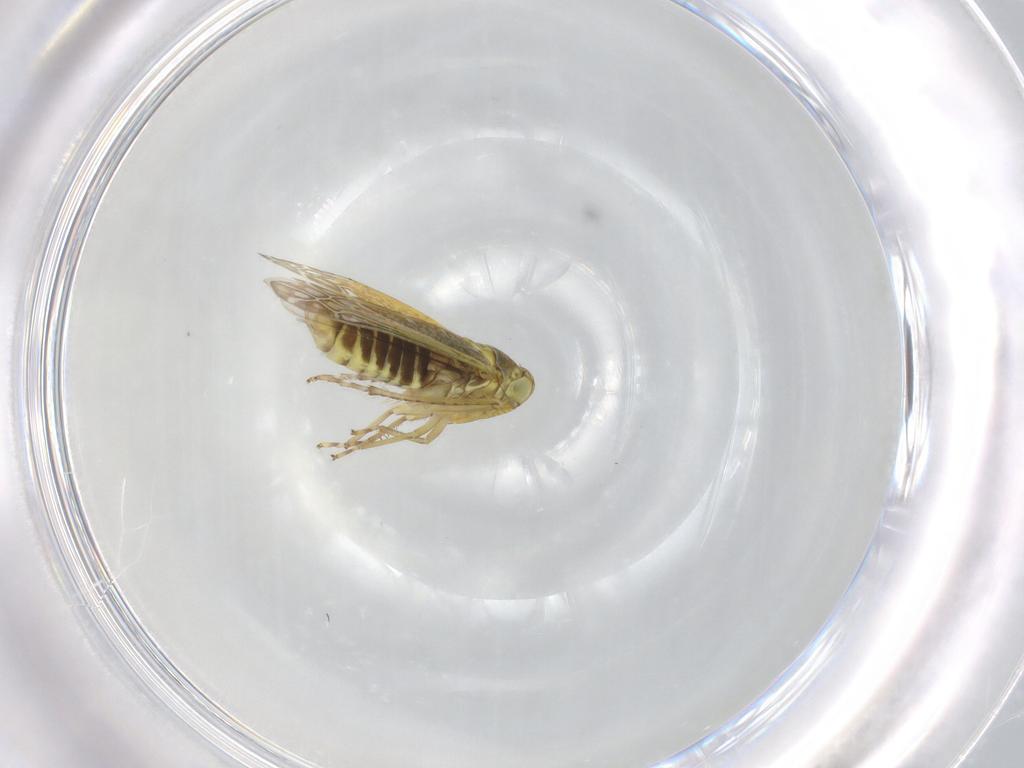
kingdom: Animalia
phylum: Arthropoda
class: Insecta
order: Hemiptera
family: Cicadellidae
